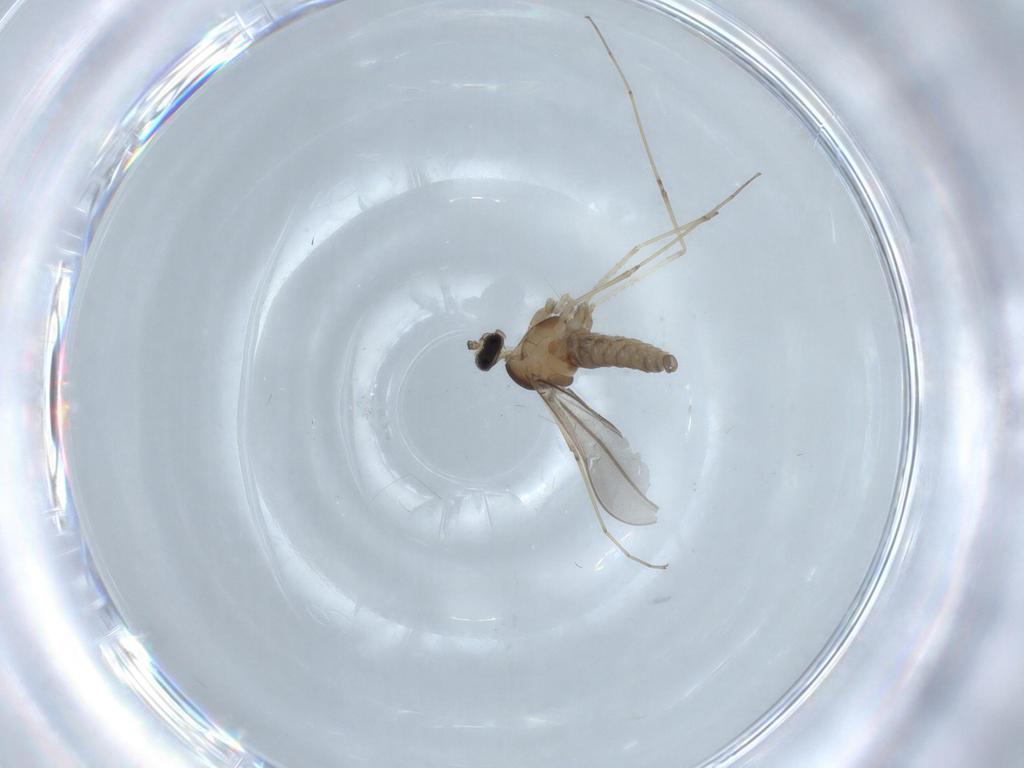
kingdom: Animalia
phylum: Arthropoda
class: Insecta
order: Diptera
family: Cecidomyiidae
